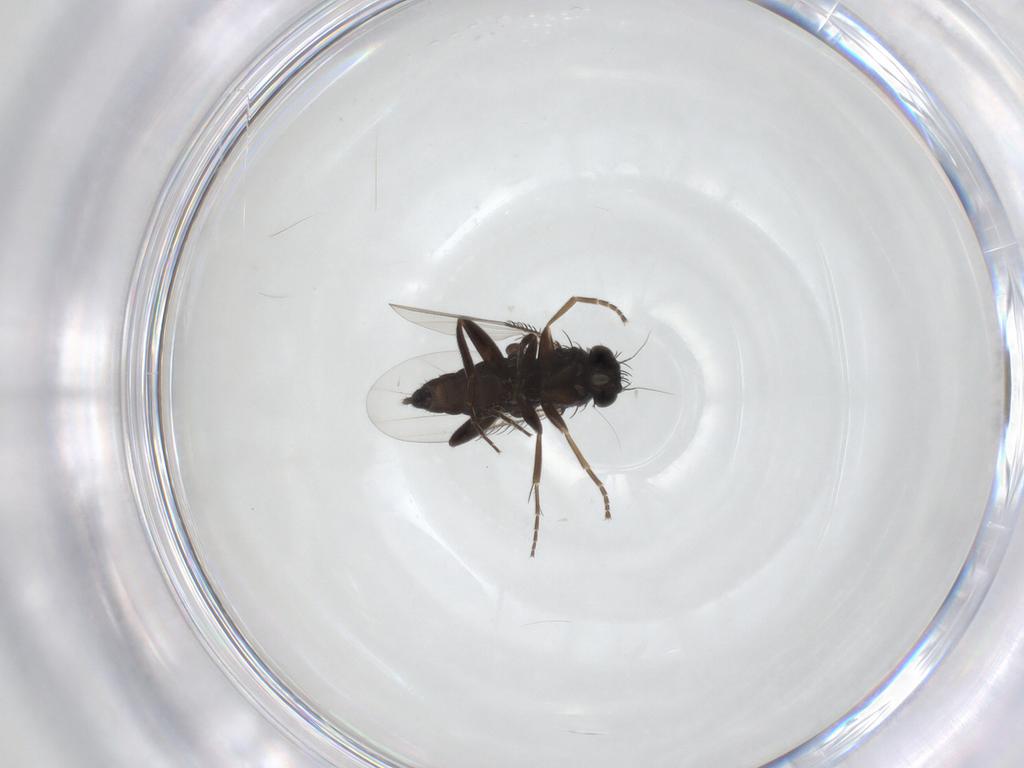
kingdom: Animalia
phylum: Arthropoda
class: Insecta
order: Diptera
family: Phoridae
